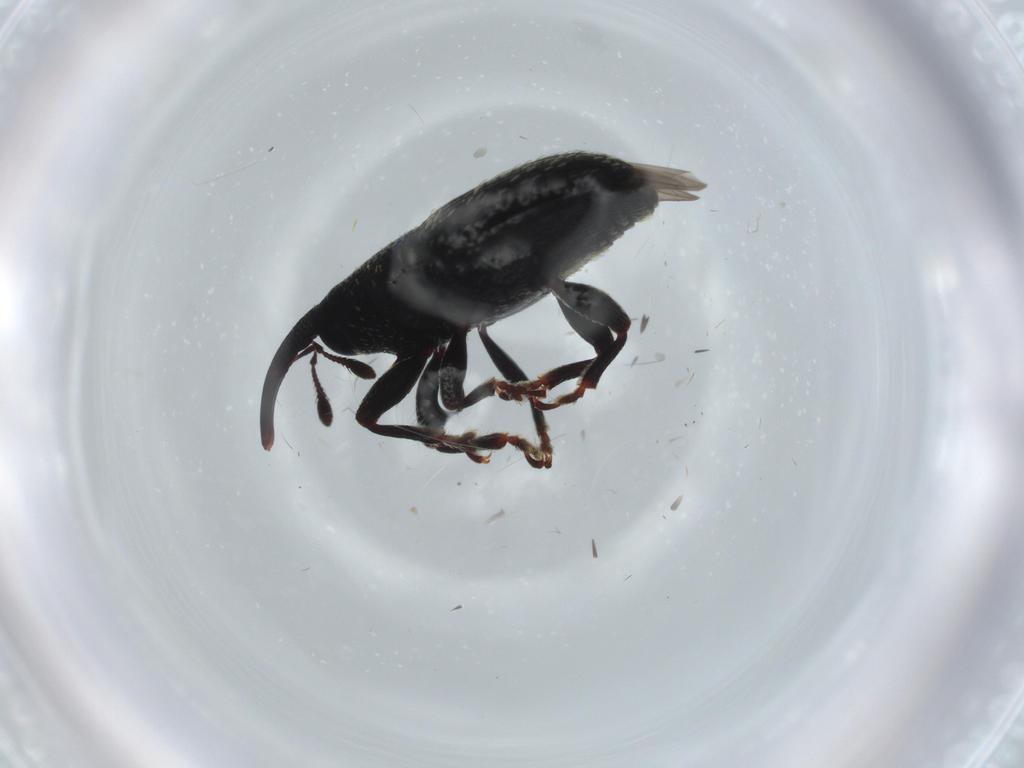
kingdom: Animalia
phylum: Arthropoda
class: Insecta
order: Coleoptera
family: Curculionidae
